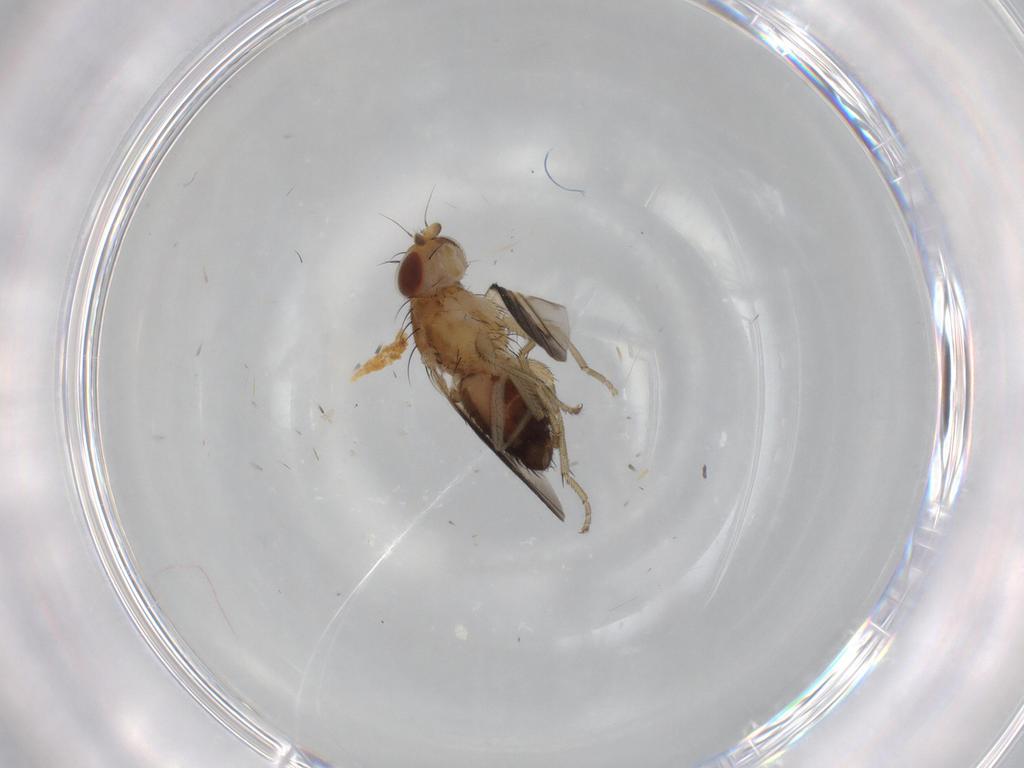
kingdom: Animalia
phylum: Arthropoda
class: Insecta
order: Diptera
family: Heleomyzidae
